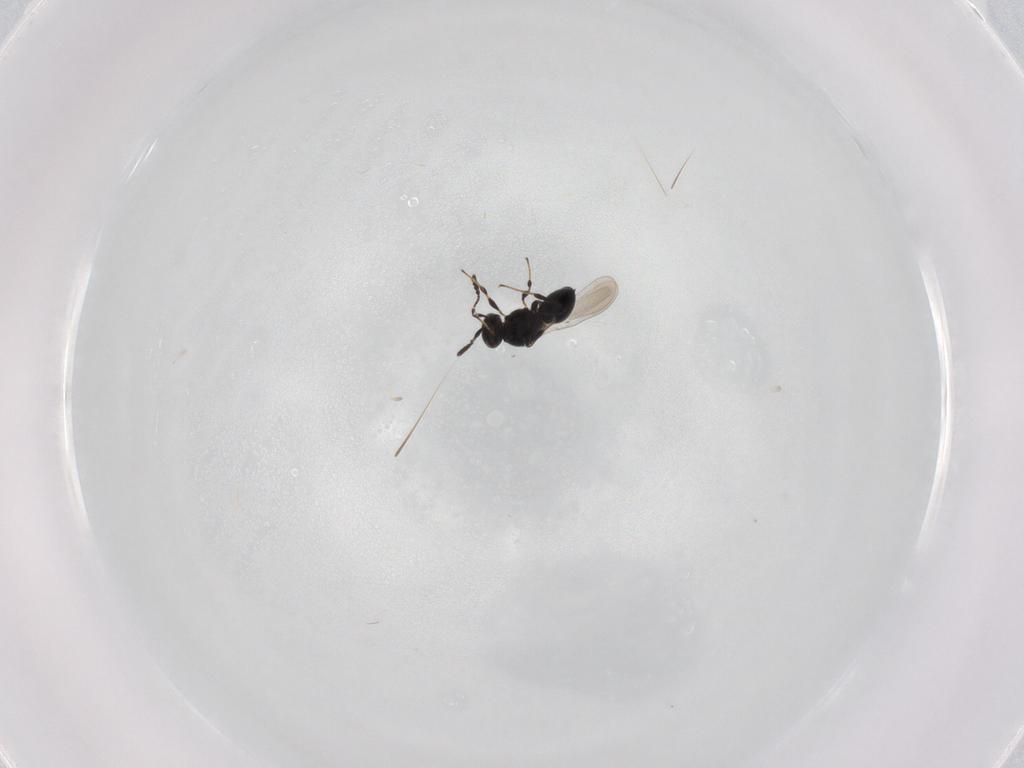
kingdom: Animalia
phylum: Arthropoda
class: Insecta
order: Hymenoptera
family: Platygastridae
